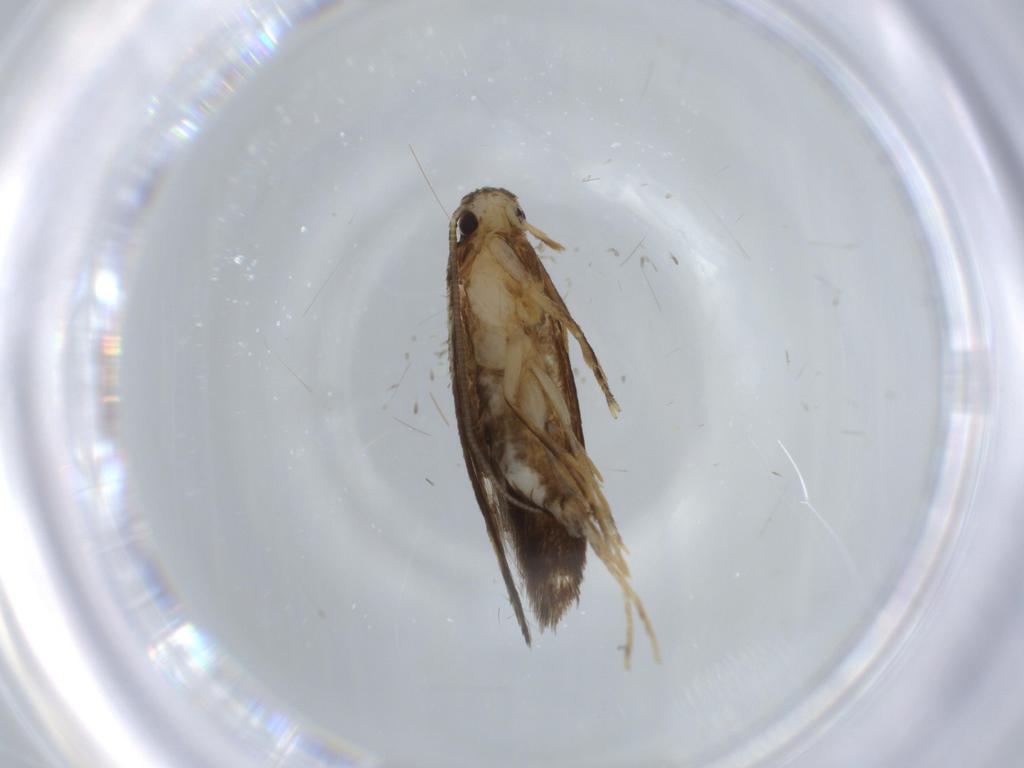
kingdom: Animalia
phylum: Arthropoda
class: Insecta
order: Lepidoptera
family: Tineidae
